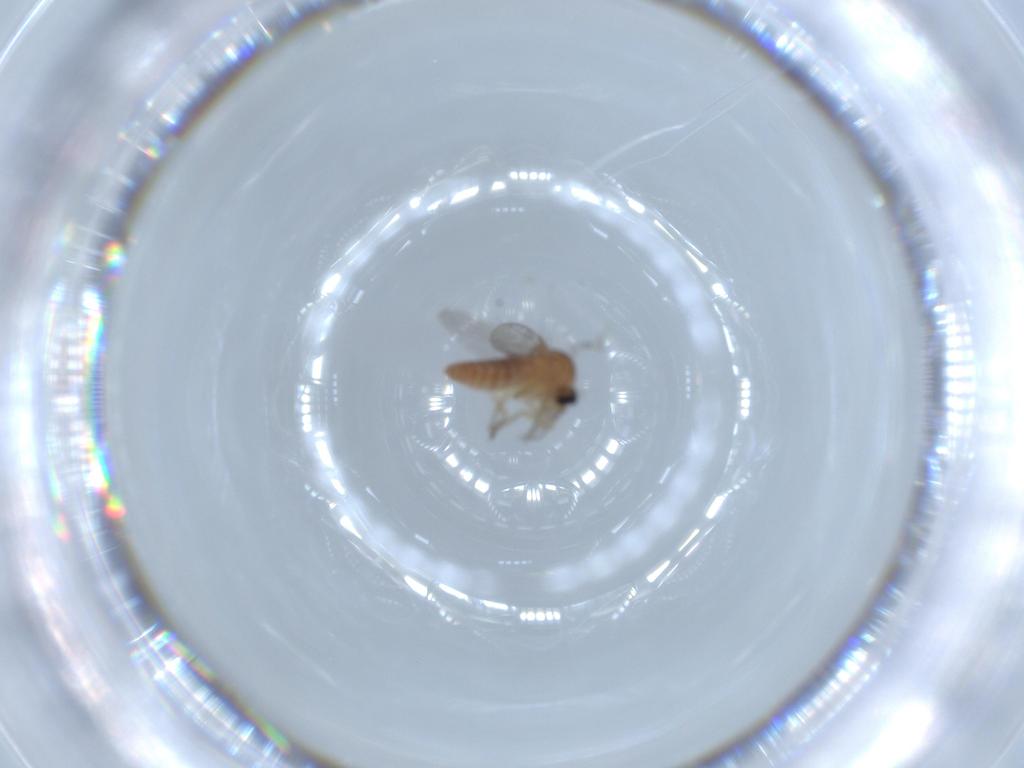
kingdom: Animalia
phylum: Arthropoda
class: Insecta
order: Diptera
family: Ceratopogonidae
